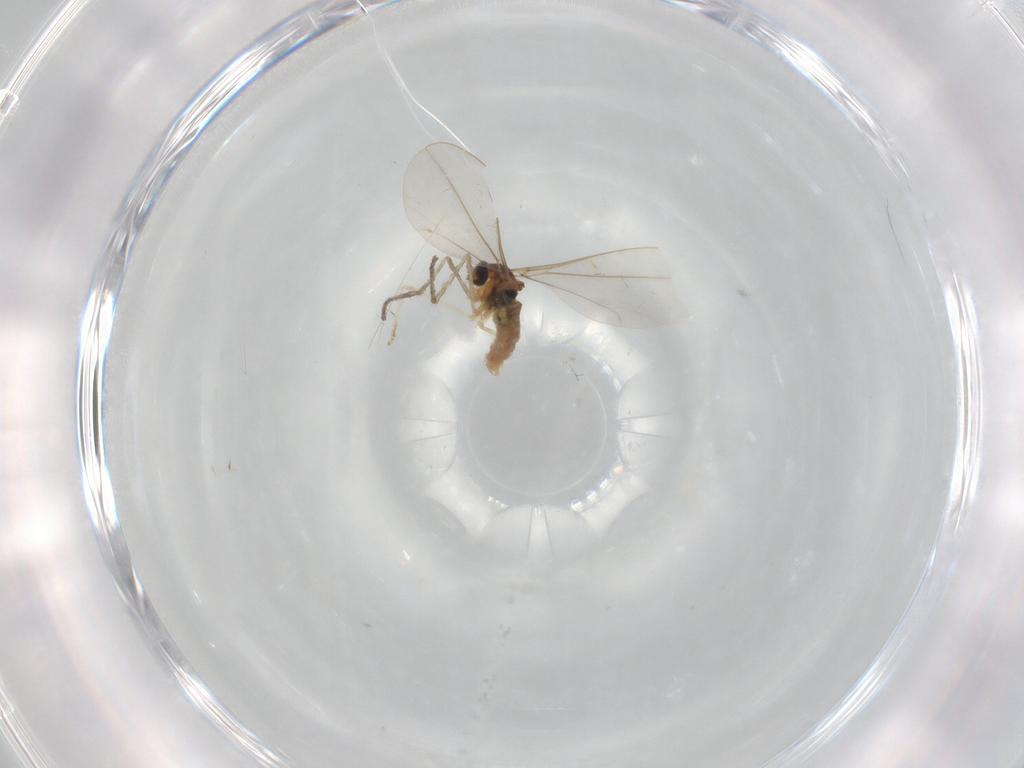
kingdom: Animalia
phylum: Arthropoda
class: Insecta
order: Diptera
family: Cecidomyiidae
